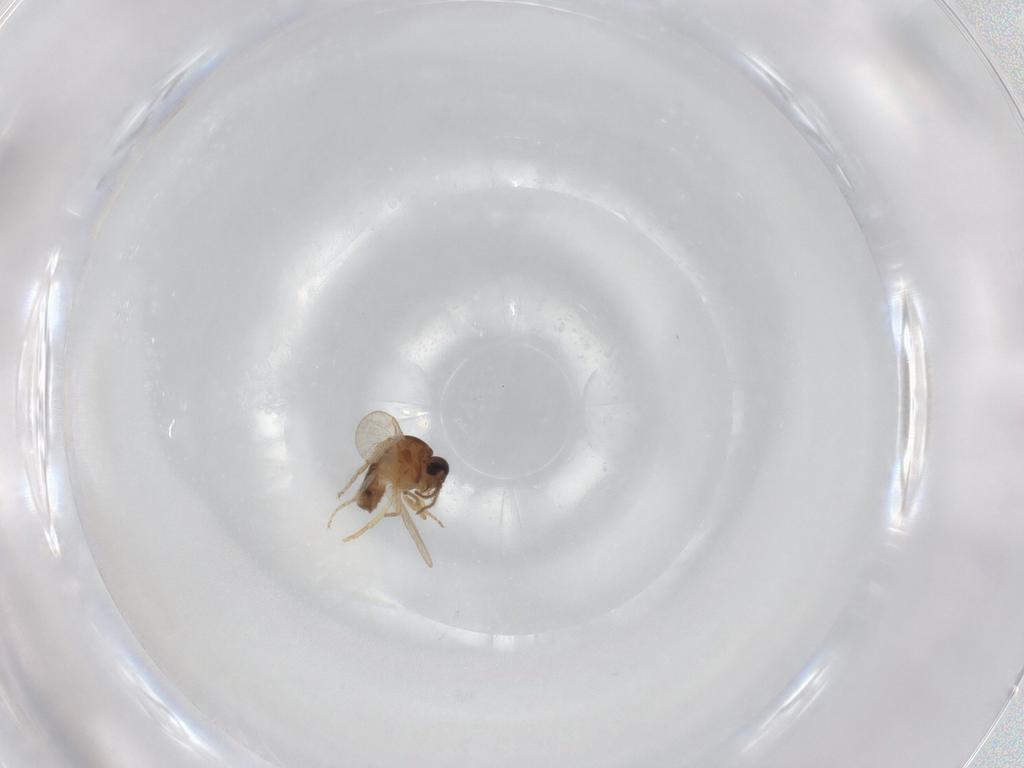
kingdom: Animalia
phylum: Arthropoda
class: Insecta
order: Diptera
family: Ceratopogonidae
